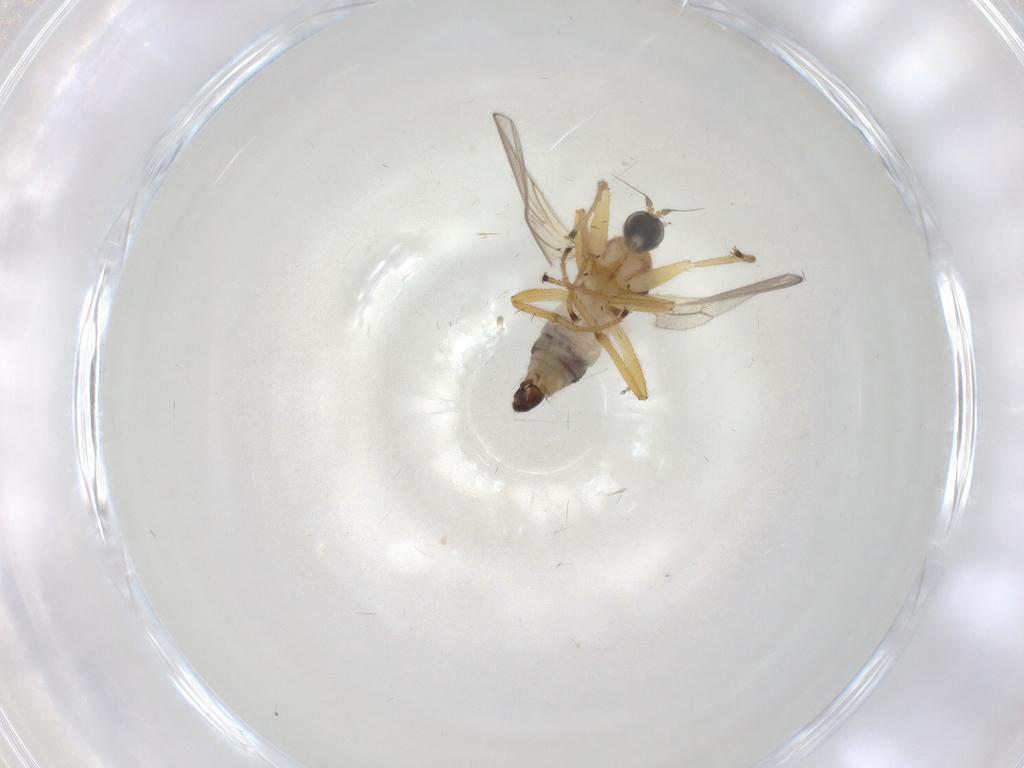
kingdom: Animalia
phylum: Arthropoda
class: Insecta
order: Diptera
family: Hybotidae
